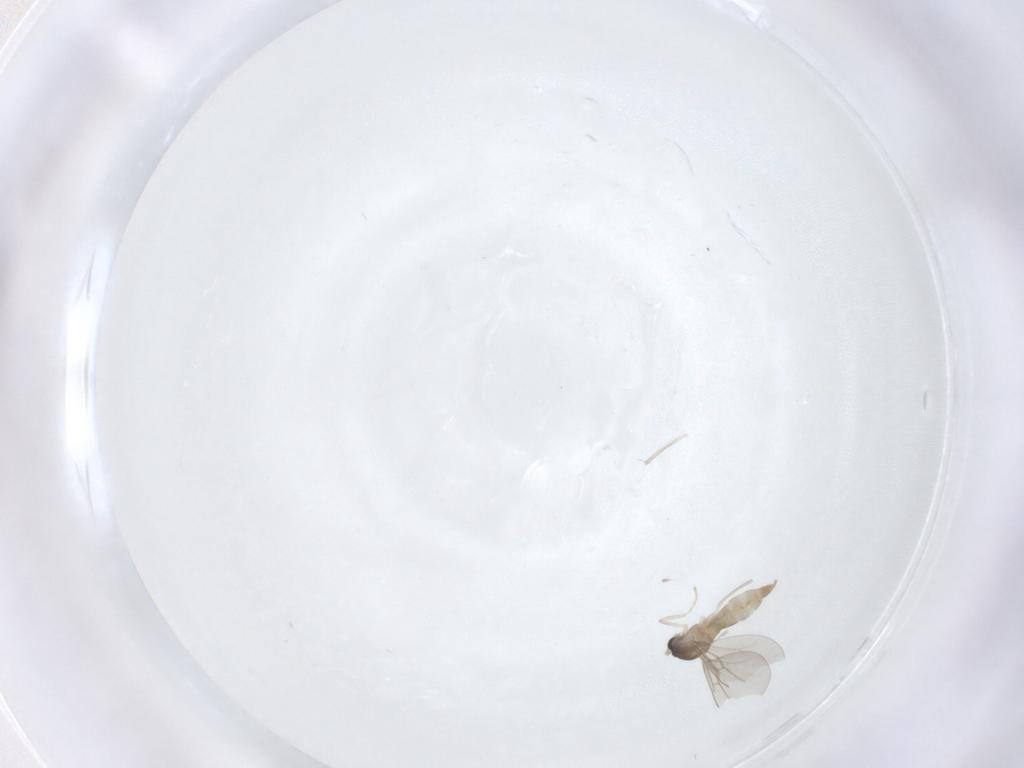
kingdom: Animalia
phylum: Arthropoda
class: Insecta
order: Diptera
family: Cecidomyiidae
